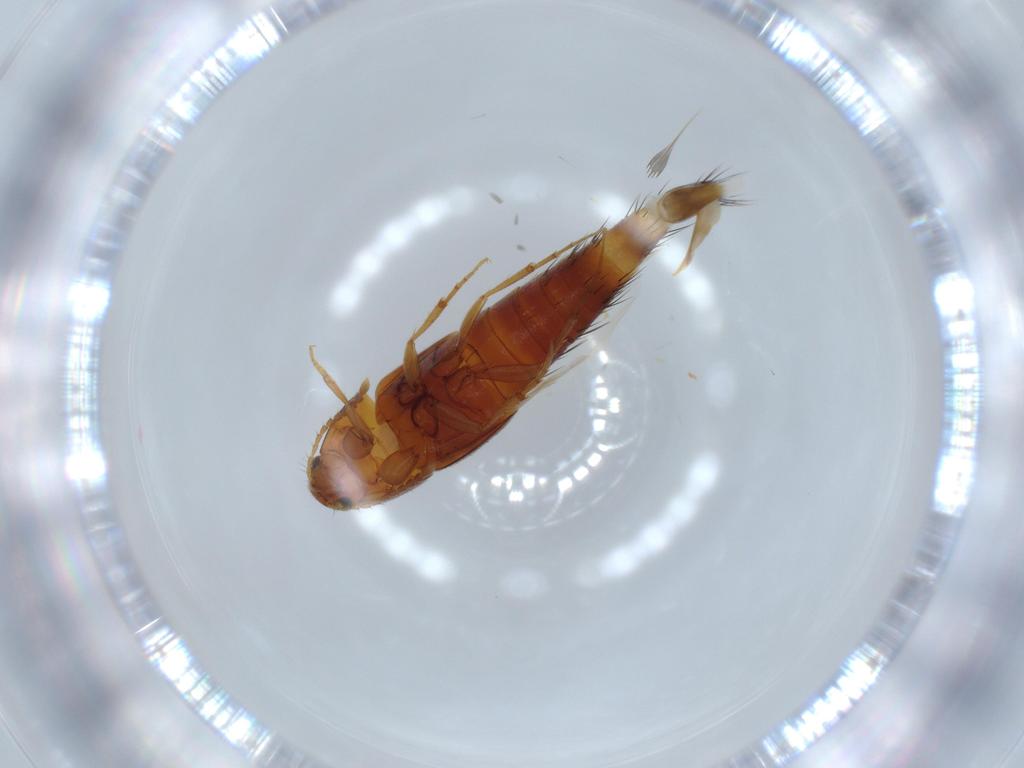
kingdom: Animalia
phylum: Arthropoda
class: Insecta
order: Coleoptera
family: Staphylinidae
